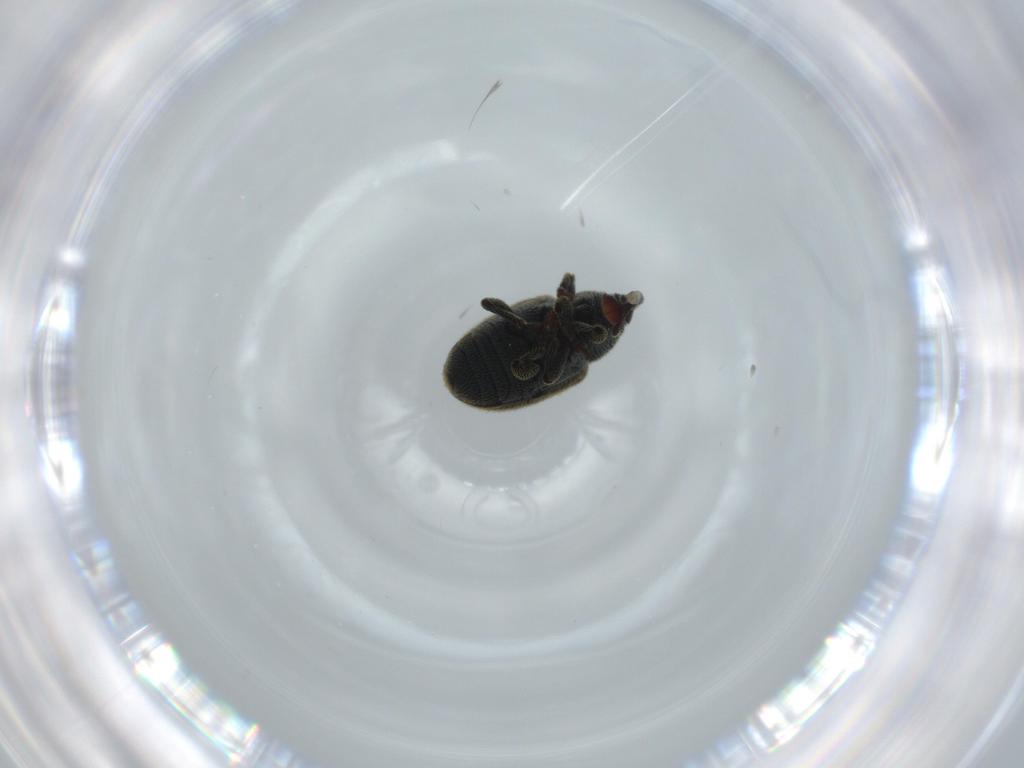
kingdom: Animalia
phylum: Arthropoda
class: Insecta
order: Coleoptera
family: Curculionidae
